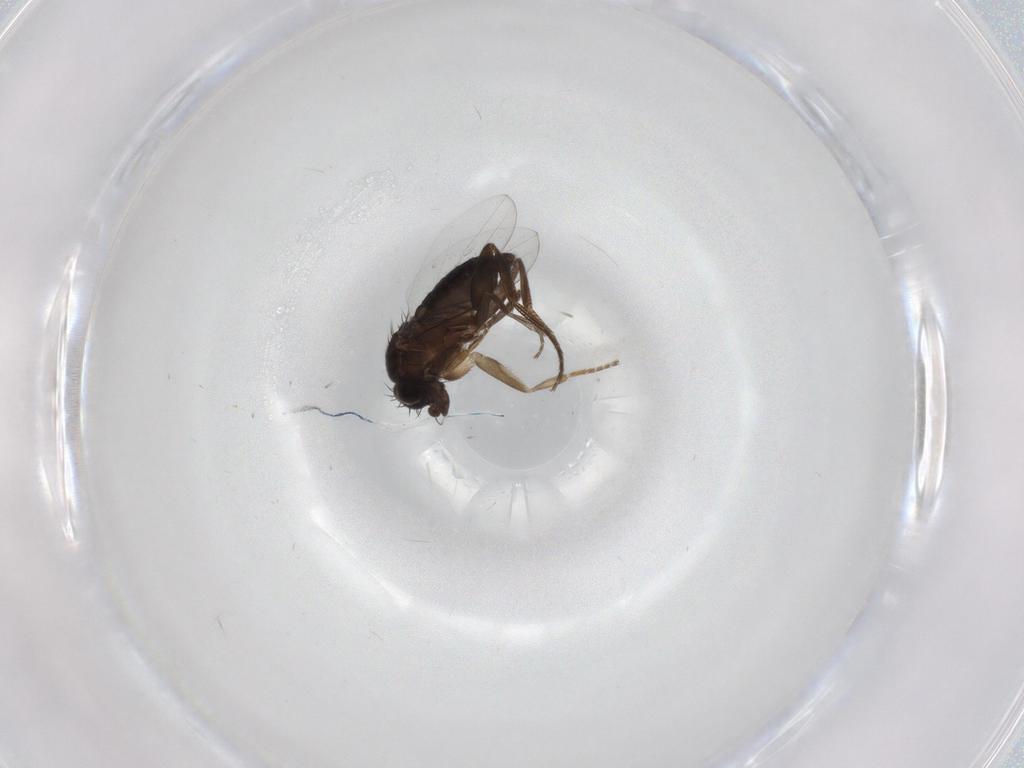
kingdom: Animalia
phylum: Arthropoda
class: Insecta
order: Diptera
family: Phoridae
